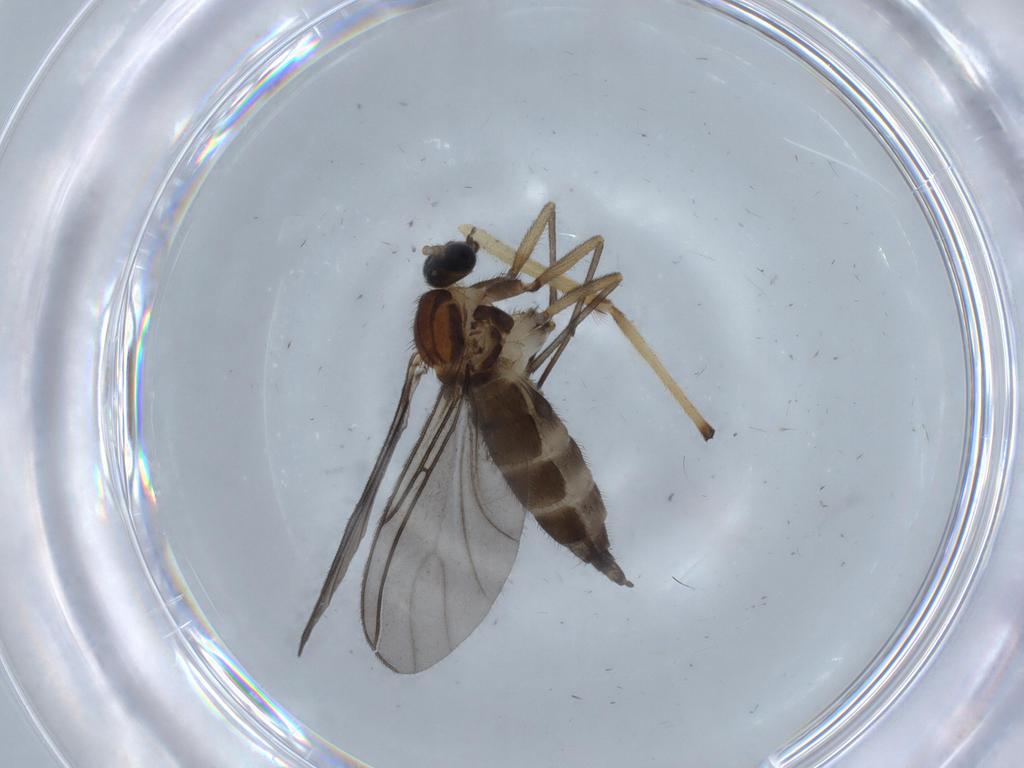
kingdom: Animalia
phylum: Arthropoda
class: Insecta
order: Diptera
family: Sciaridae
